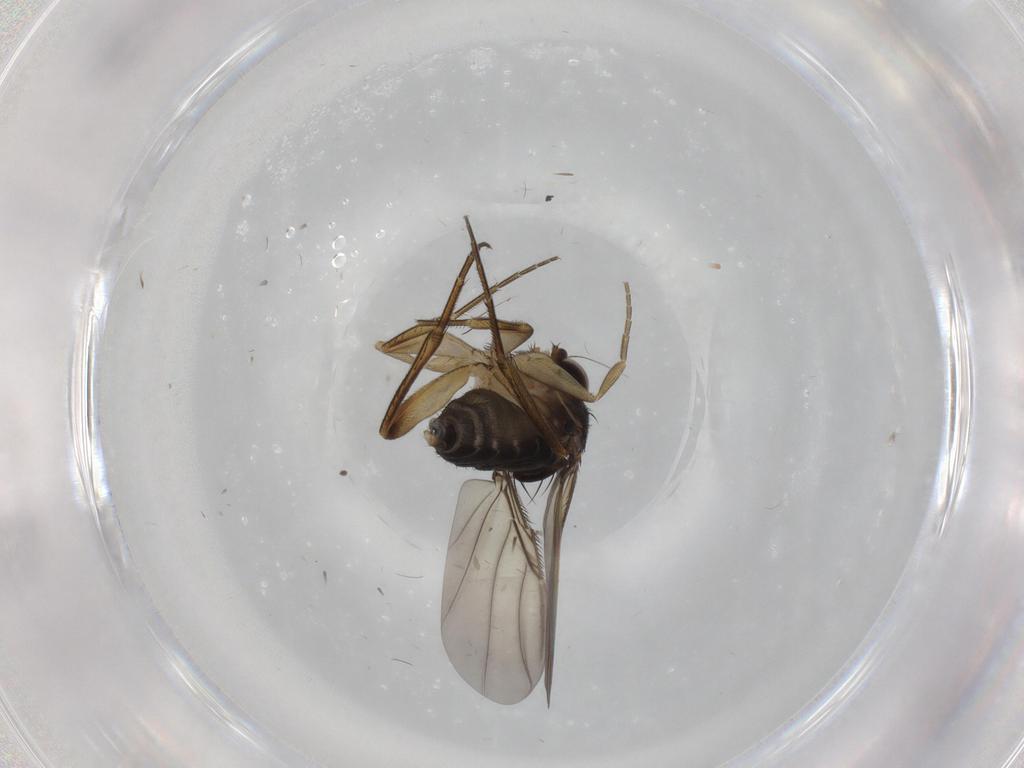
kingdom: Animalia
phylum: Arthropoda
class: Insecta
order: Diptera
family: Phoridae
